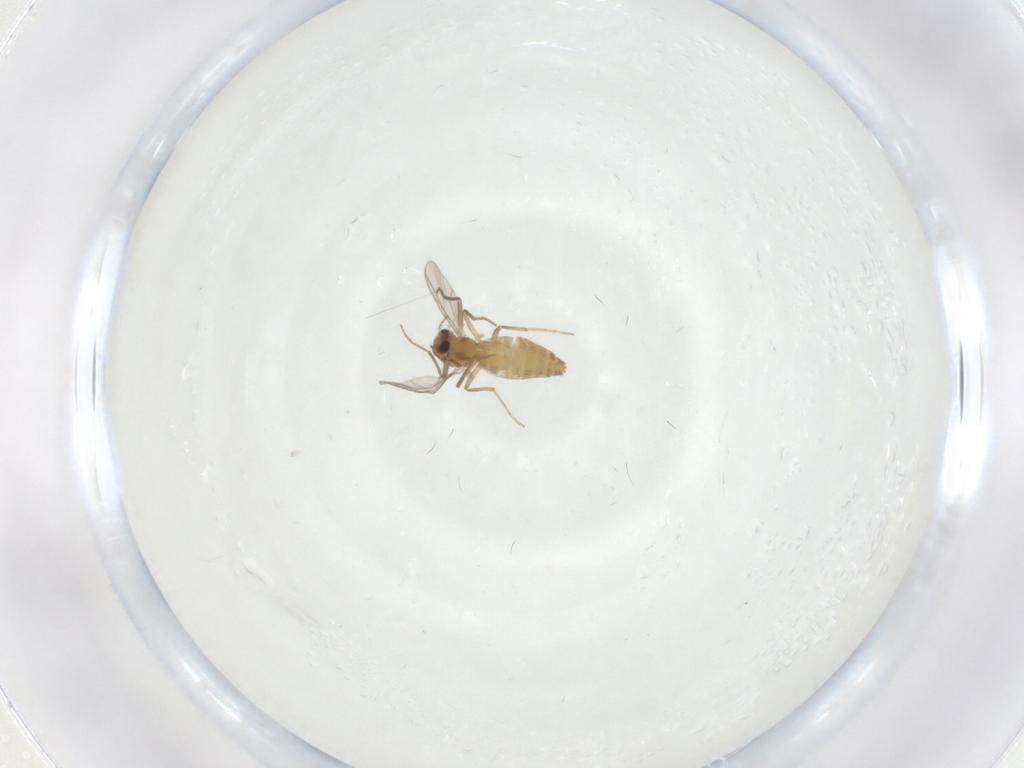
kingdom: Animalia
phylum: Arthropoda
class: Insecta
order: Diptera
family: Chironomidae
